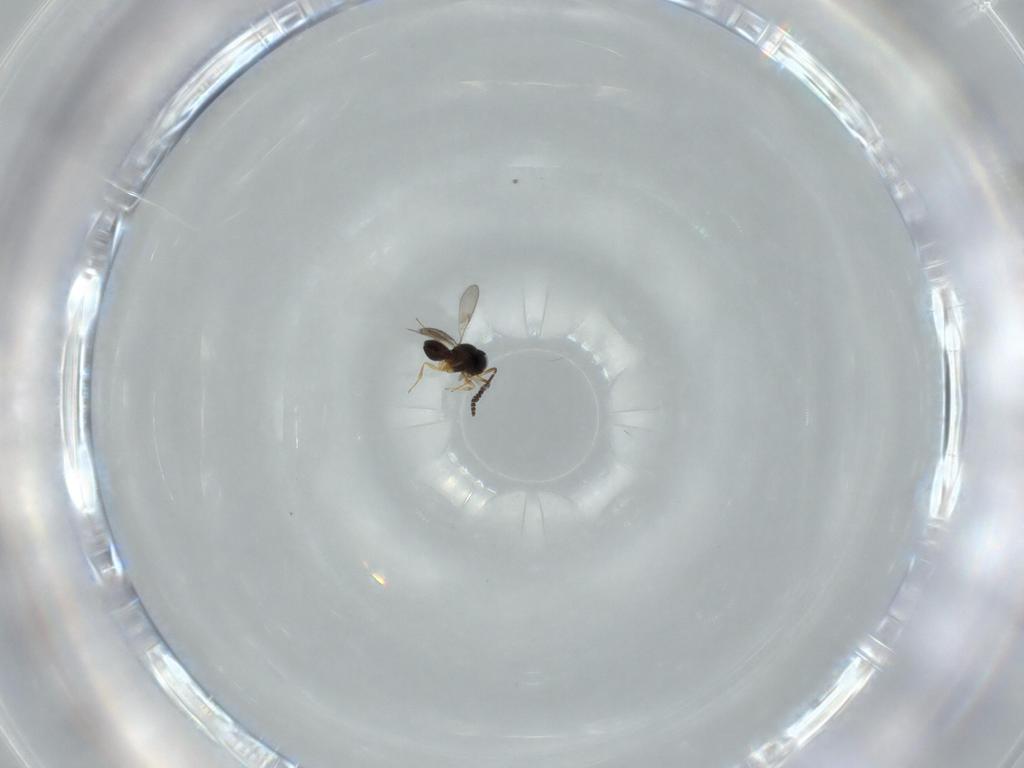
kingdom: Animalia
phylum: Arthropoda
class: Insecta
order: Hymenoptera
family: Scelionidae
